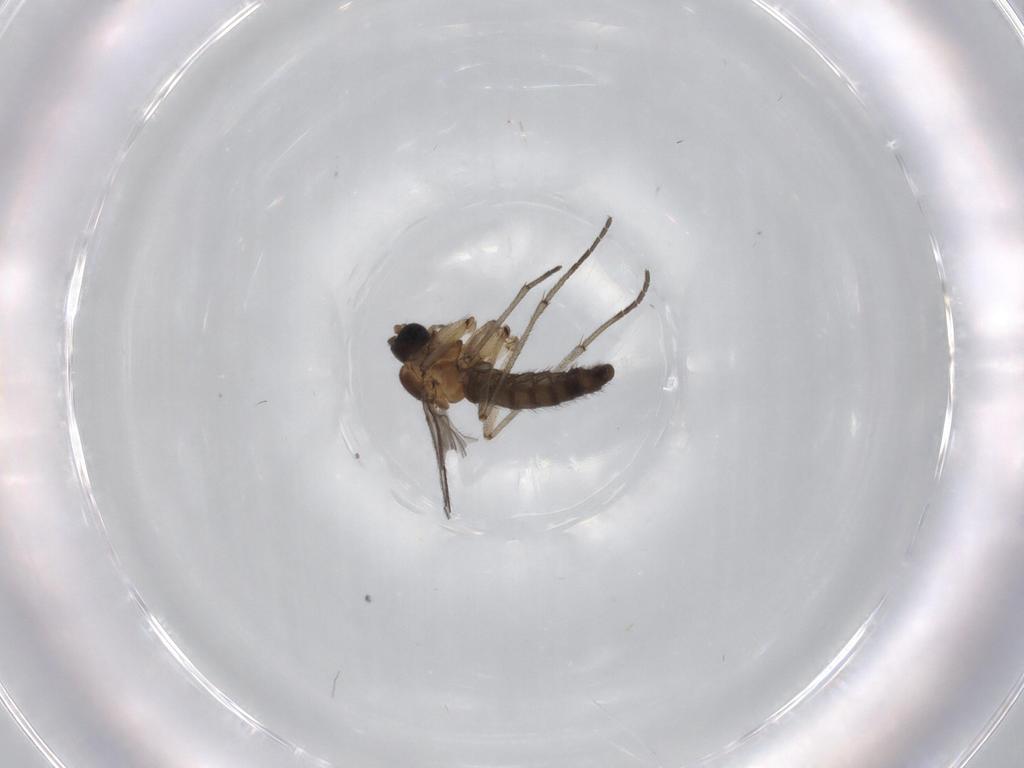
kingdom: Animalia
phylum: Arthropoda
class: Insecta
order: Diptera
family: Sciaridae
